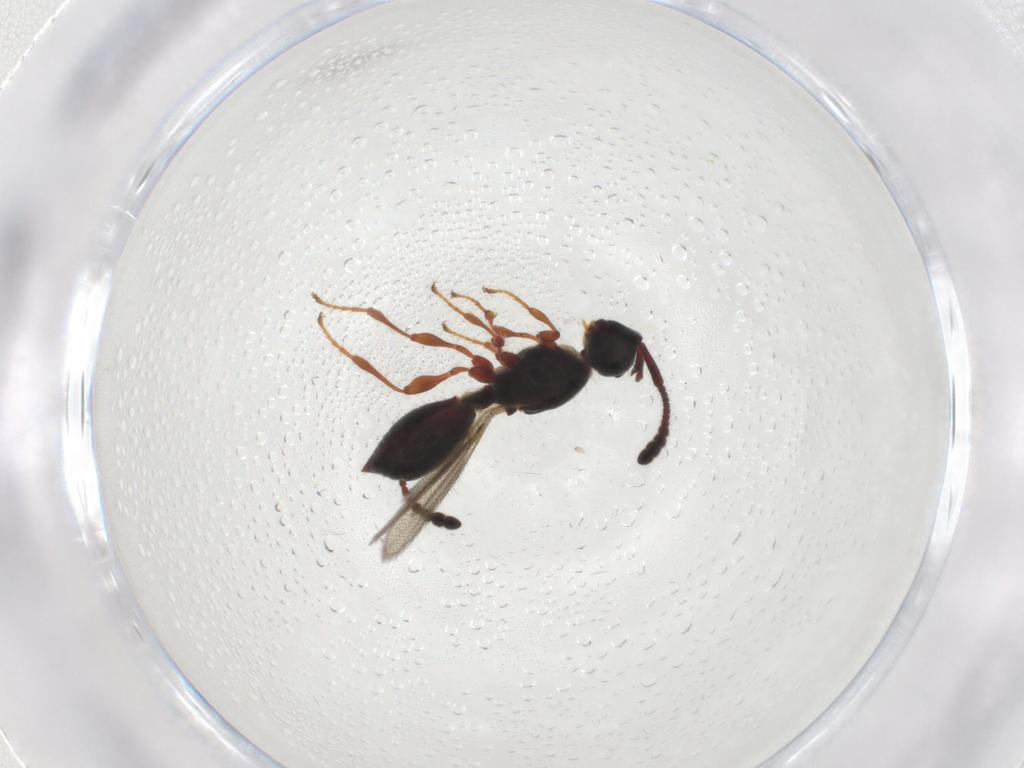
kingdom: Animalia
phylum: Arthropoda
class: Insecta
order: Hymenoptera
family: Diapriidae
